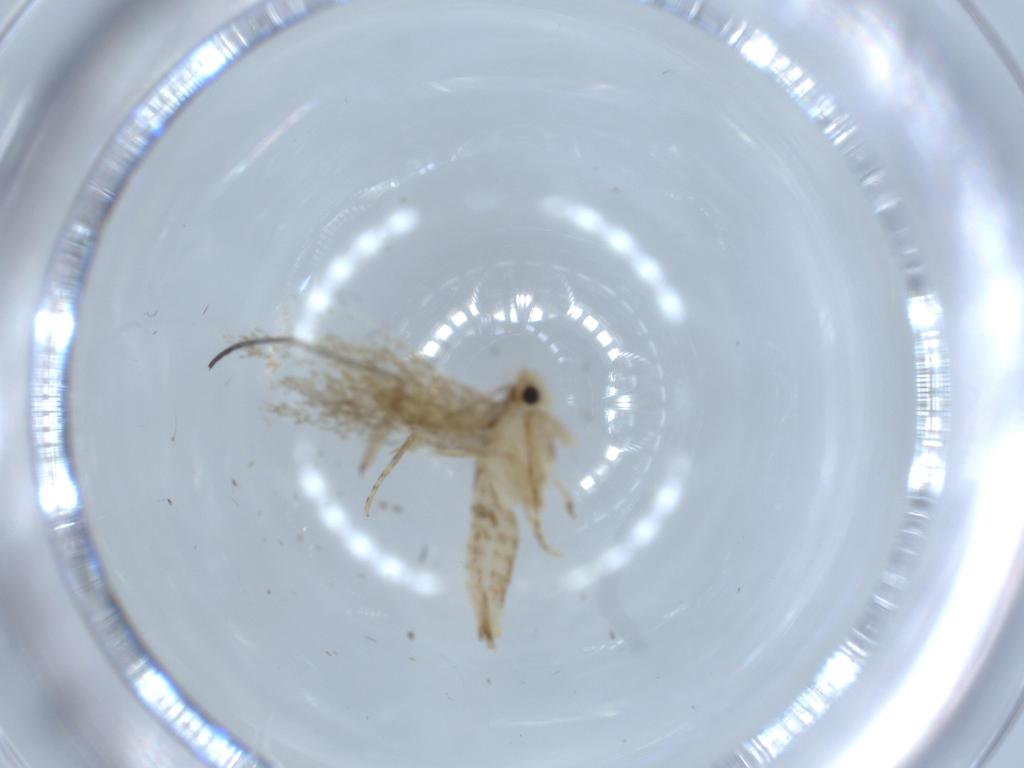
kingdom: Animalia
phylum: Arthropoda
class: Insecta
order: Lepidoptera
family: Tineidae
